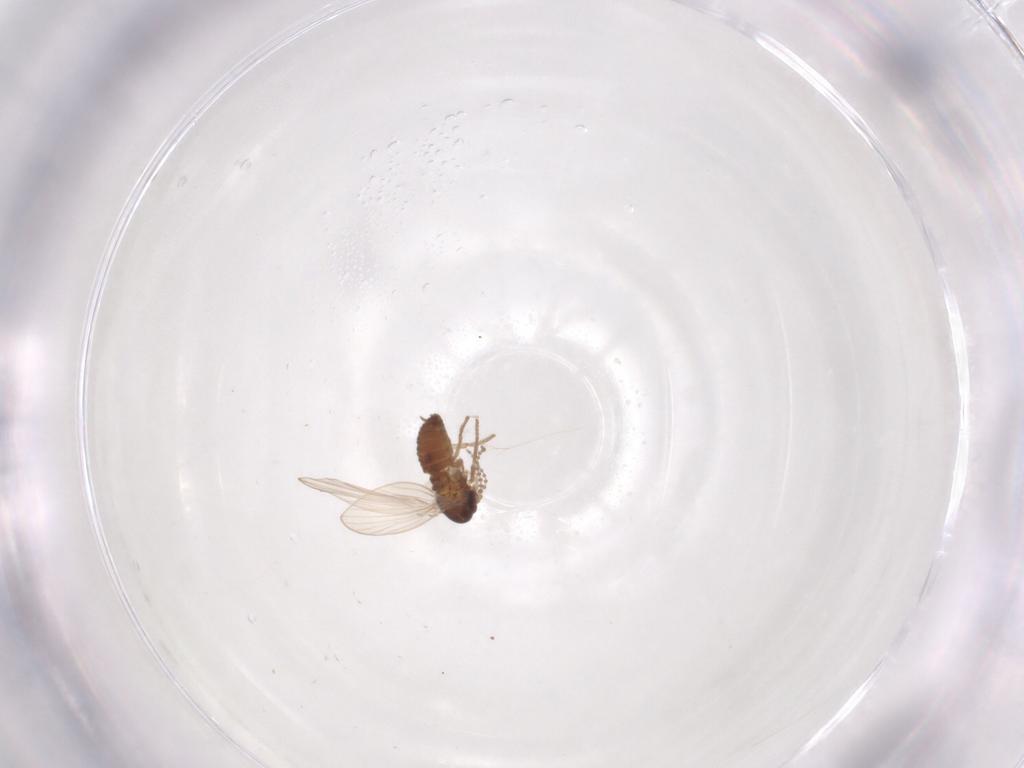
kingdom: Animalia
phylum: Arthropoda
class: Insecta
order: Diptera
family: Psychodidae
